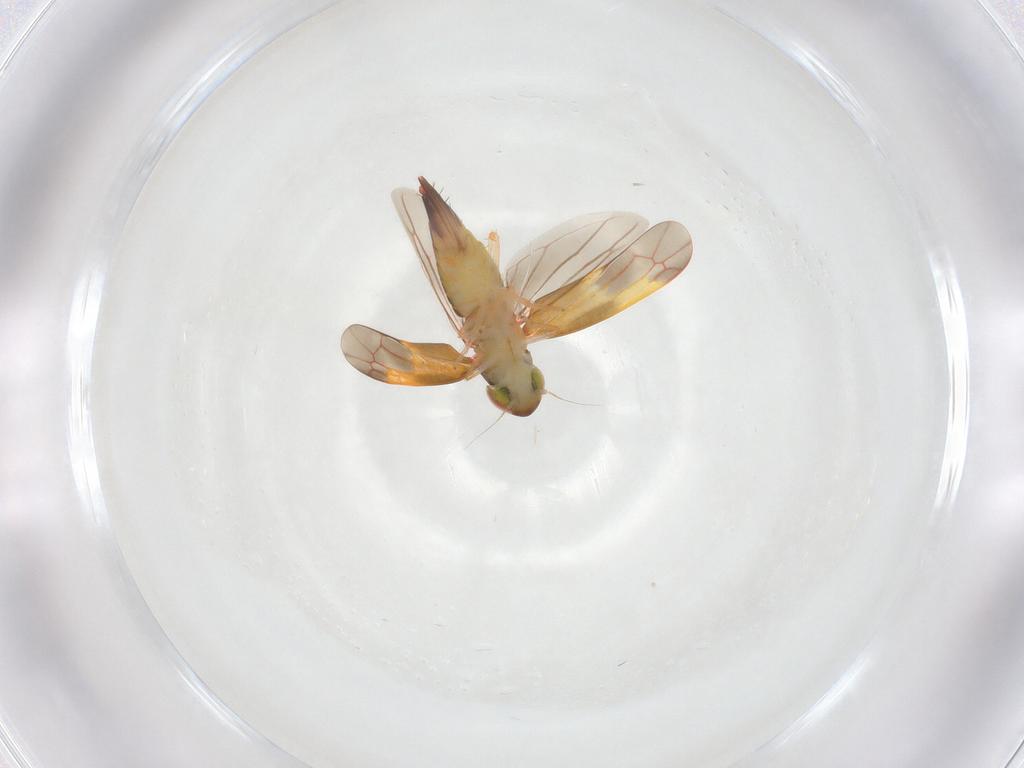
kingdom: Animalia
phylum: Arthropoda
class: Insecta
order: Hemiptera
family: Cicadellidae
